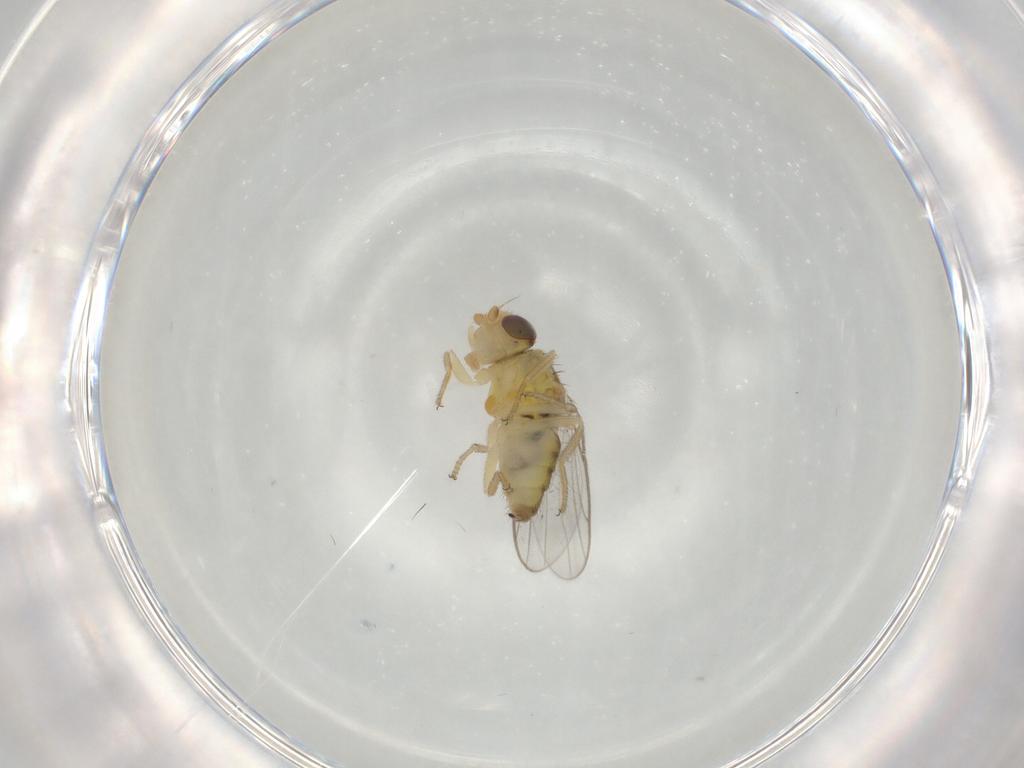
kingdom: Animalia
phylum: Arthropoda
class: Insecta
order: Diptera
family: Chloropidae
